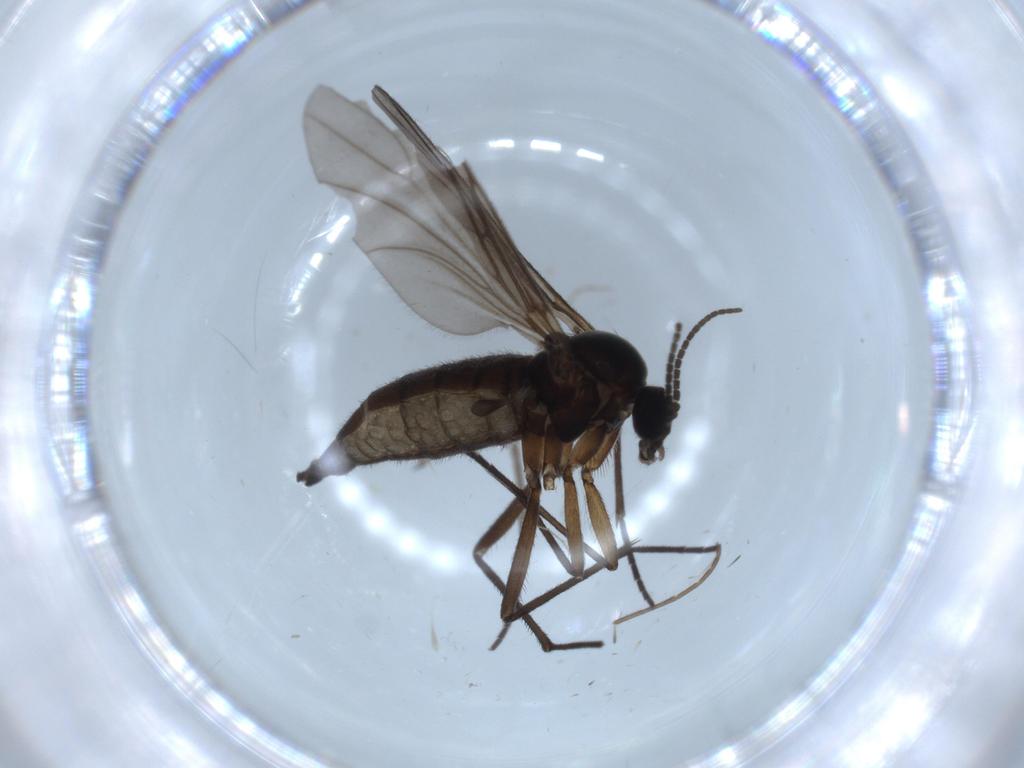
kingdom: Animalia
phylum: Arthropoda
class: Insecta
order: Diptera
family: Sciaridae
